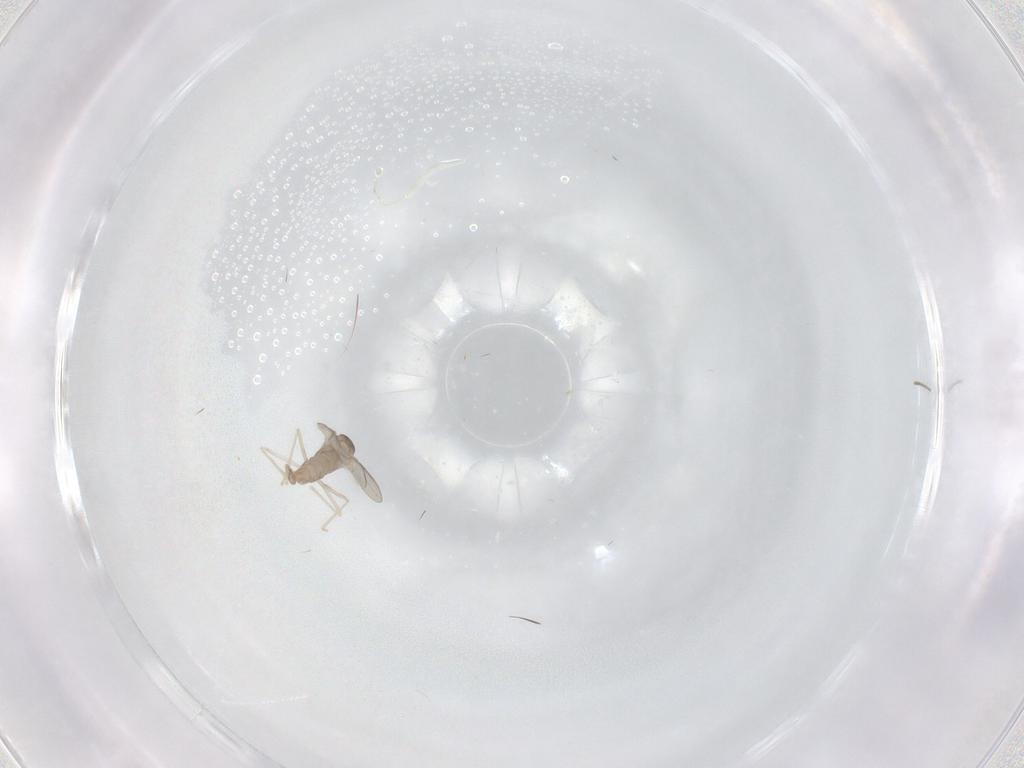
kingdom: Animalia
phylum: Arthropoda
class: Insecta
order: Diptera
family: Cecidomyiidae
